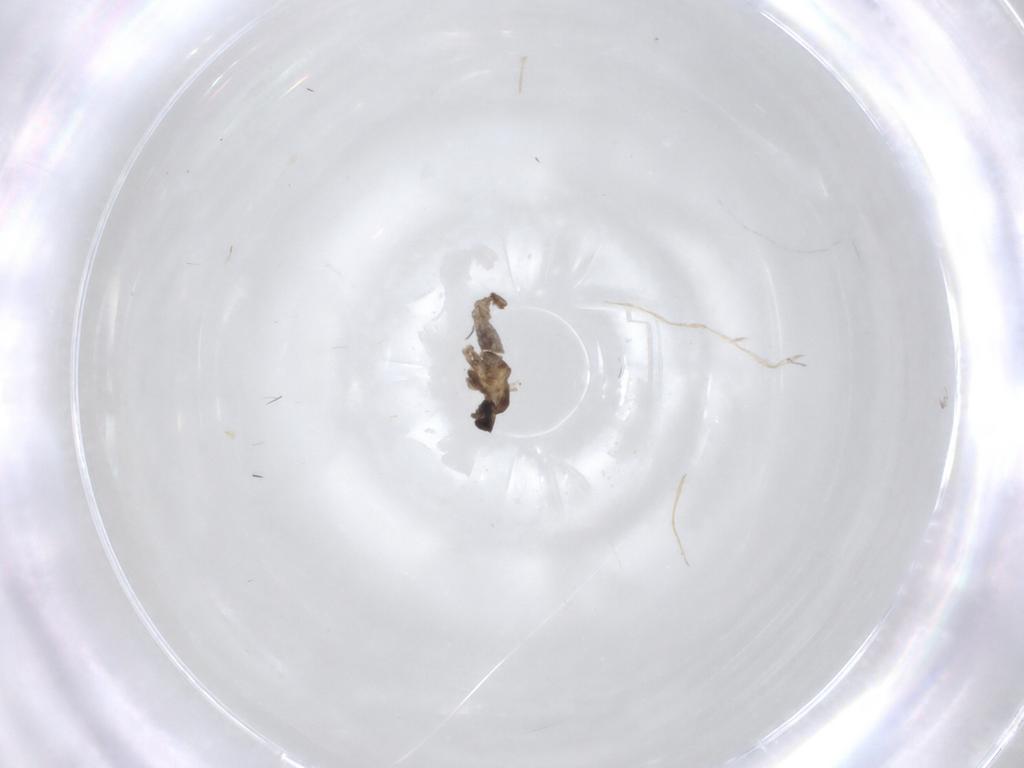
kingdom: Animalia
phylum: Arthropoda
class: Insecta
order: Diptera
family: Cecidomyiidae
